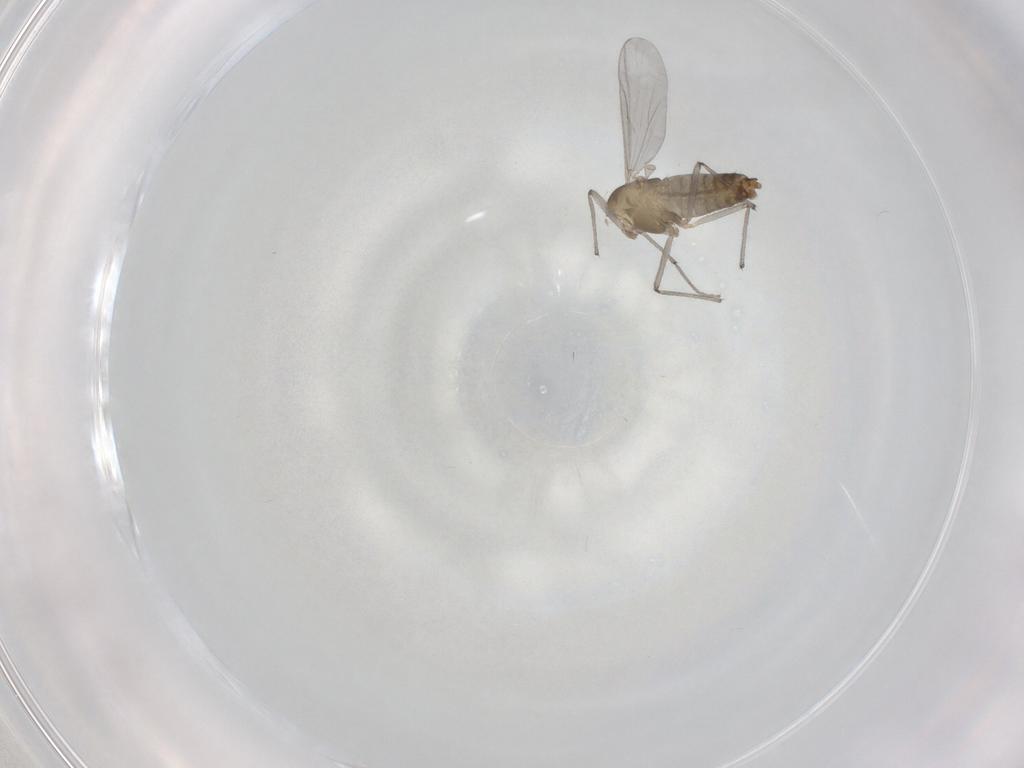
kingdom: Animalia
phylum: Arthropoda
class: Insecta
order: Diptera
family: Chironomidae
